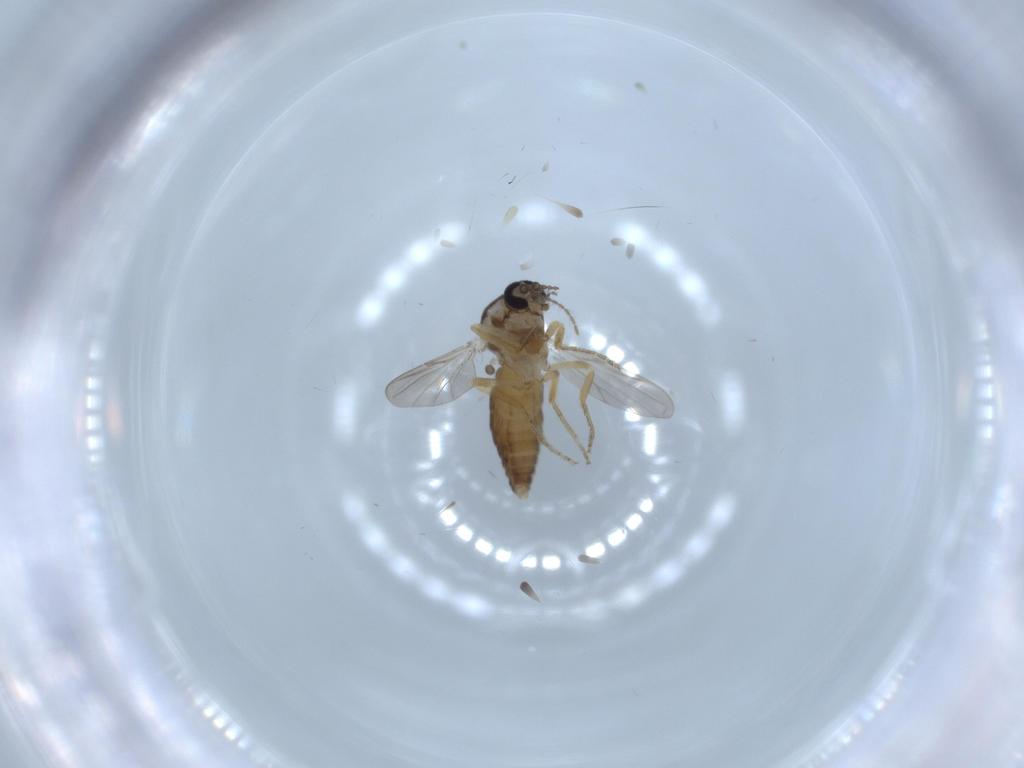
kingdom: Animalia
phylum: Arthropoda
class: Insecta
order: Diptera
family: Ceratopogonidae
